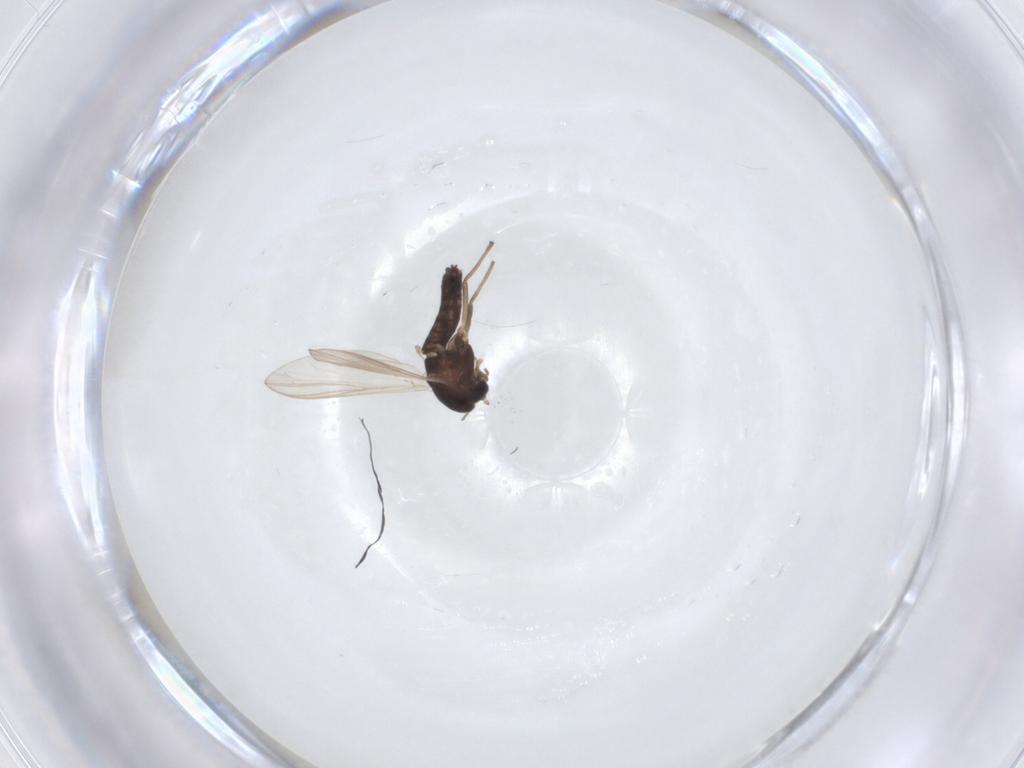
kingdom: Animalia
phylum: Arthropoda
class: Insecta
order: Diptera
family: Chironomidae
